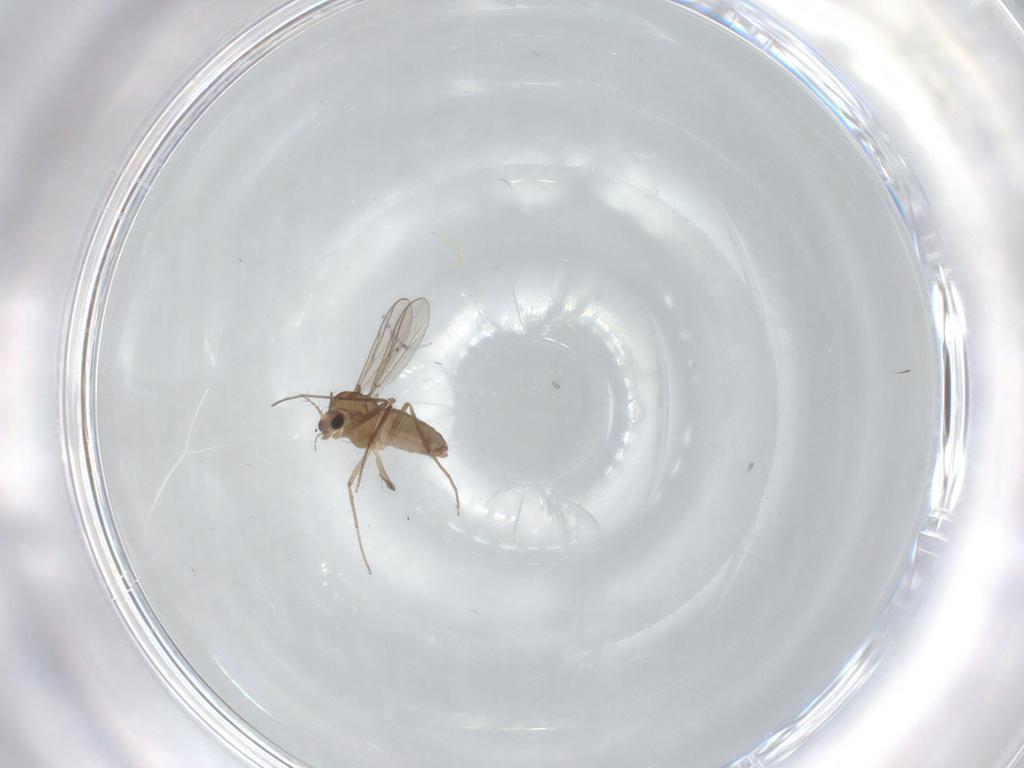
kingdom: Animalia
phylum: Arthropoda
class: Insecta
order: Diptera
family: Chironomidae
